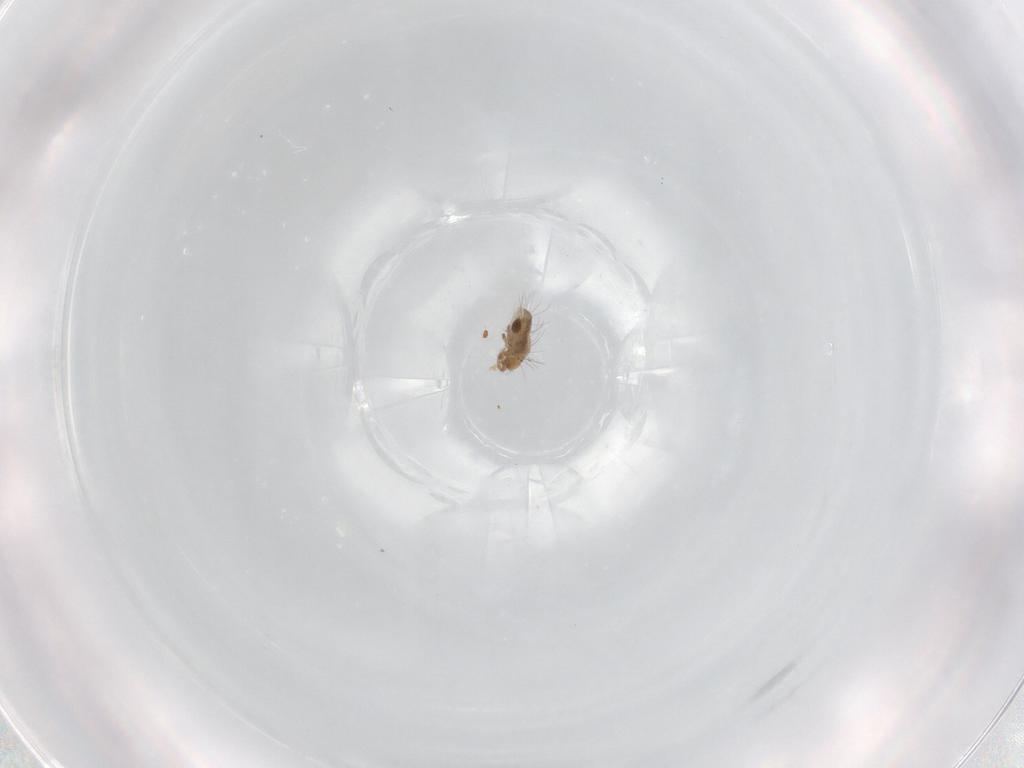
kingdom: Animalia
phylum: Arthropoda
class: Arachnida
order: Sarcoptiformes
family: Humerobatidae
